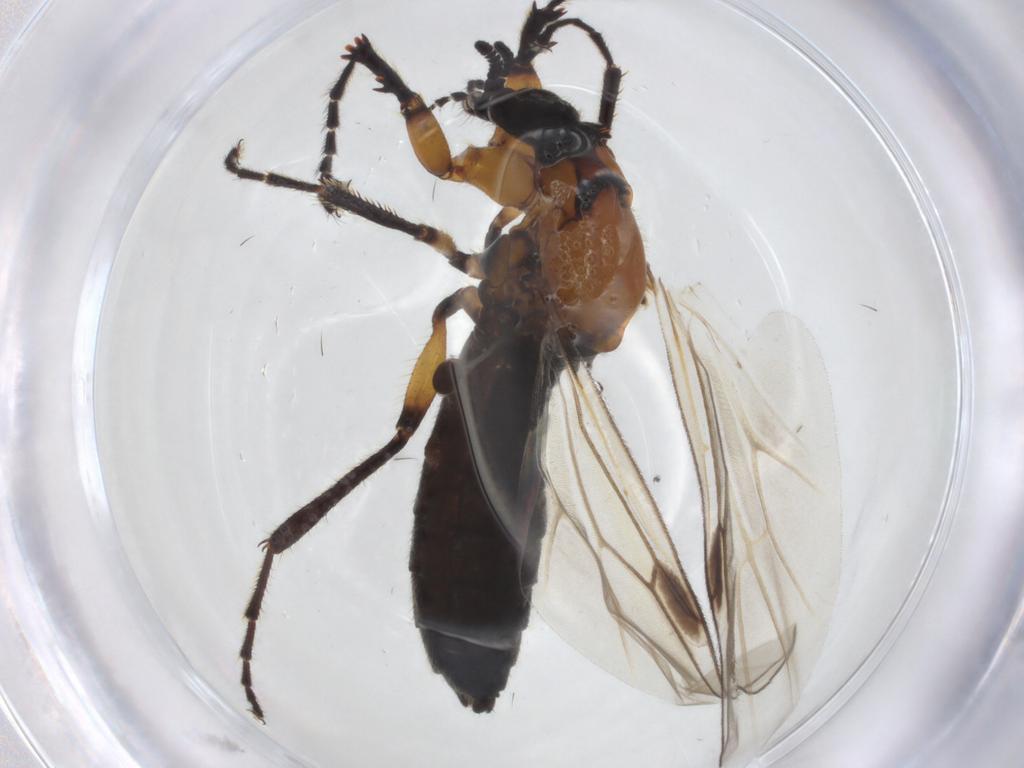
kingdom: Animalia
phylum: Arthropoda
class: Insecta
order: Diptera
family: Bibionidae
